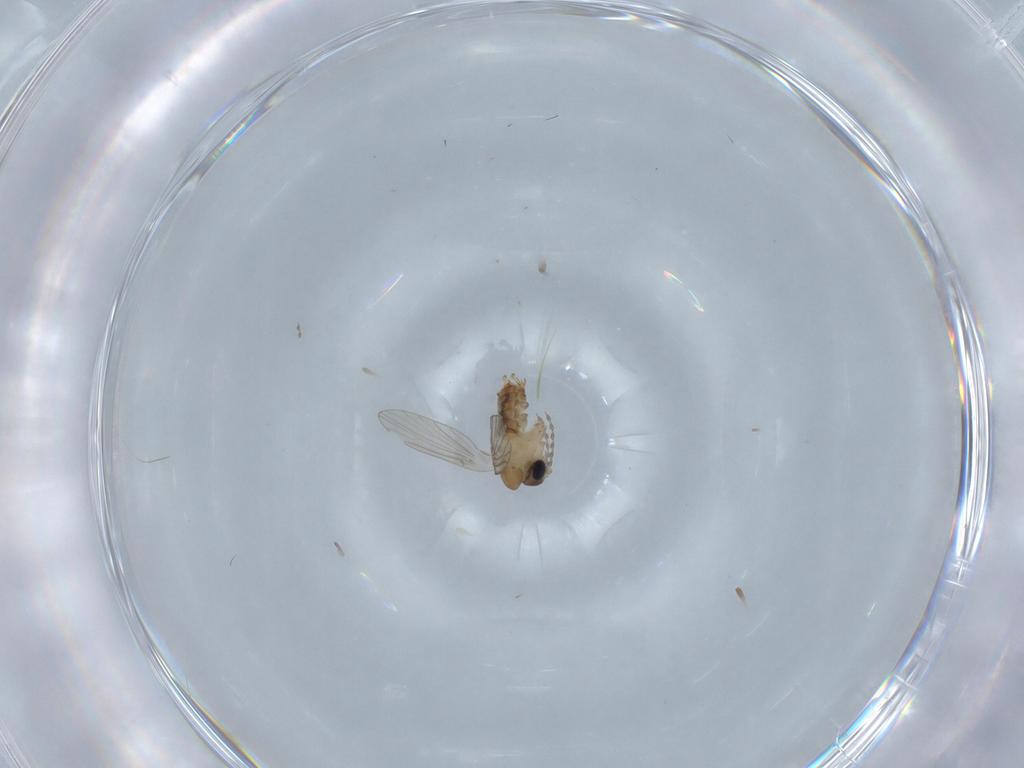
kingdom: Animalia
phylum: Arthropoda
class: Insecta
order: Diptera
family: Chironomidae
